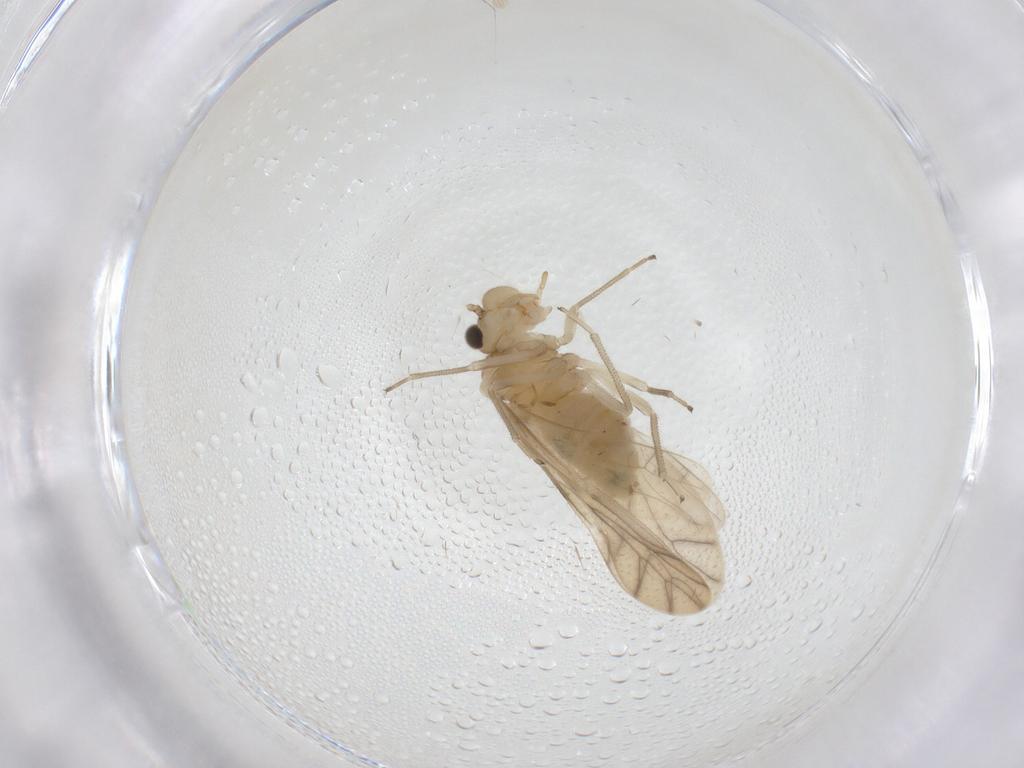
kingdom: Animalia
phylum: Arthropoda
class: Insecta
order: Psocodea
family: Caeciliusidae
